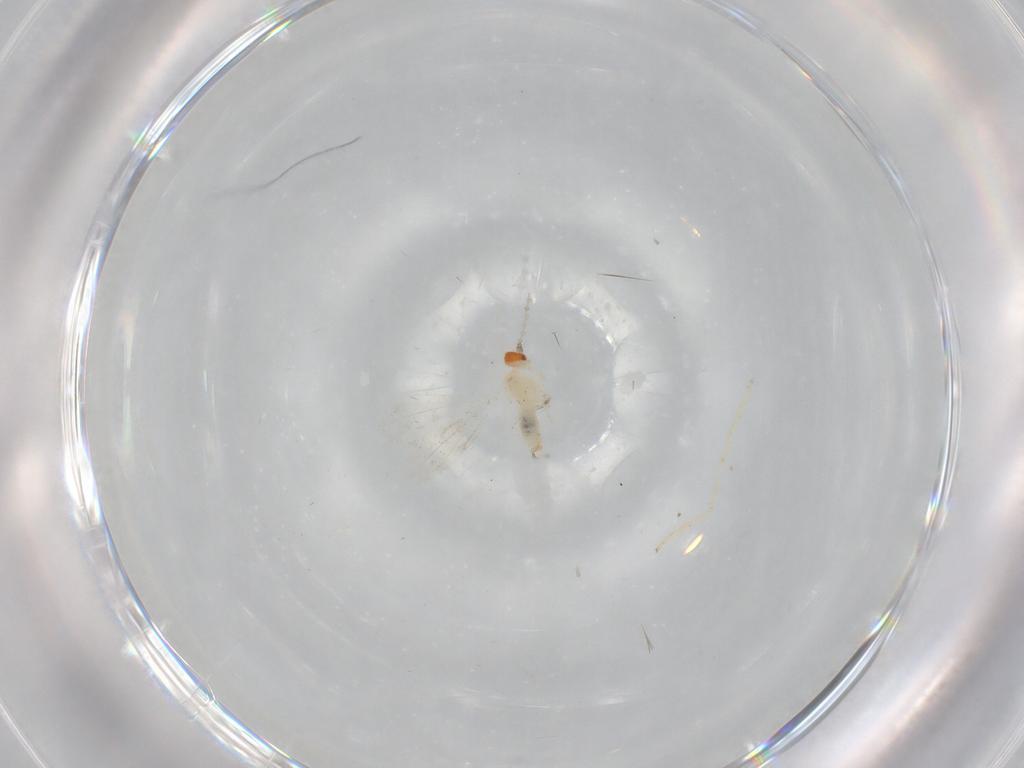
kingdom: Animalia
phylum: Arthropoda
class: Insecta
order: Diptera
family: Chironomidae
